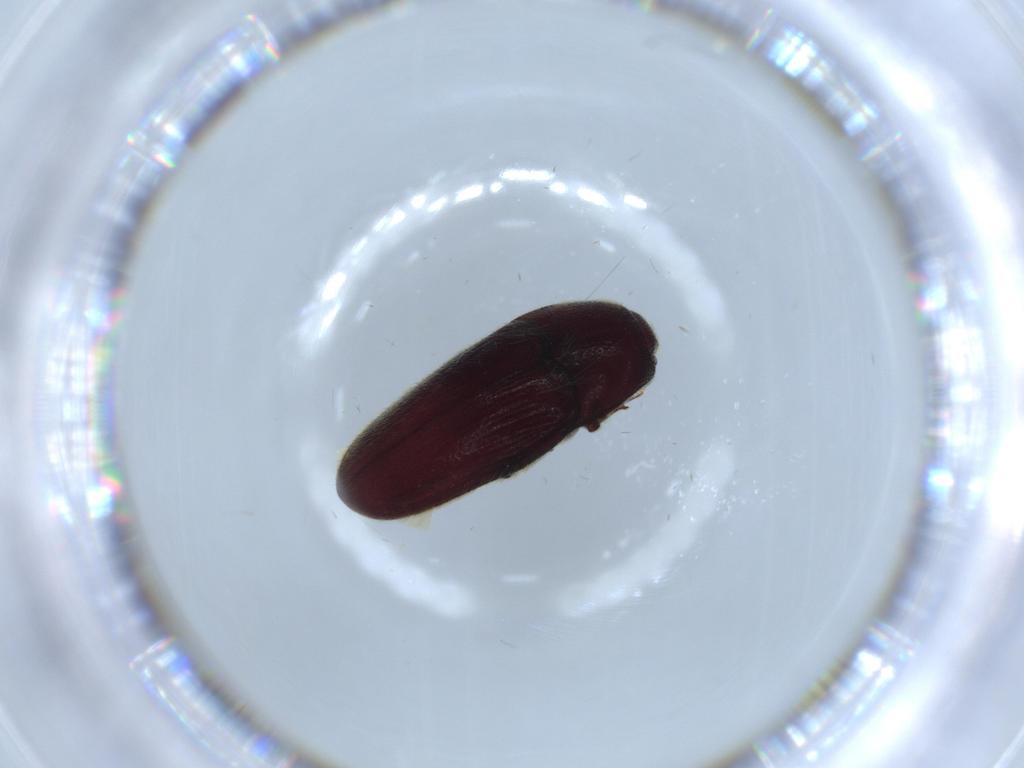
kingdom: Animalia
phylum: Arthropoda
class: Insecta
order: Coleoptera
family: Throscidae
